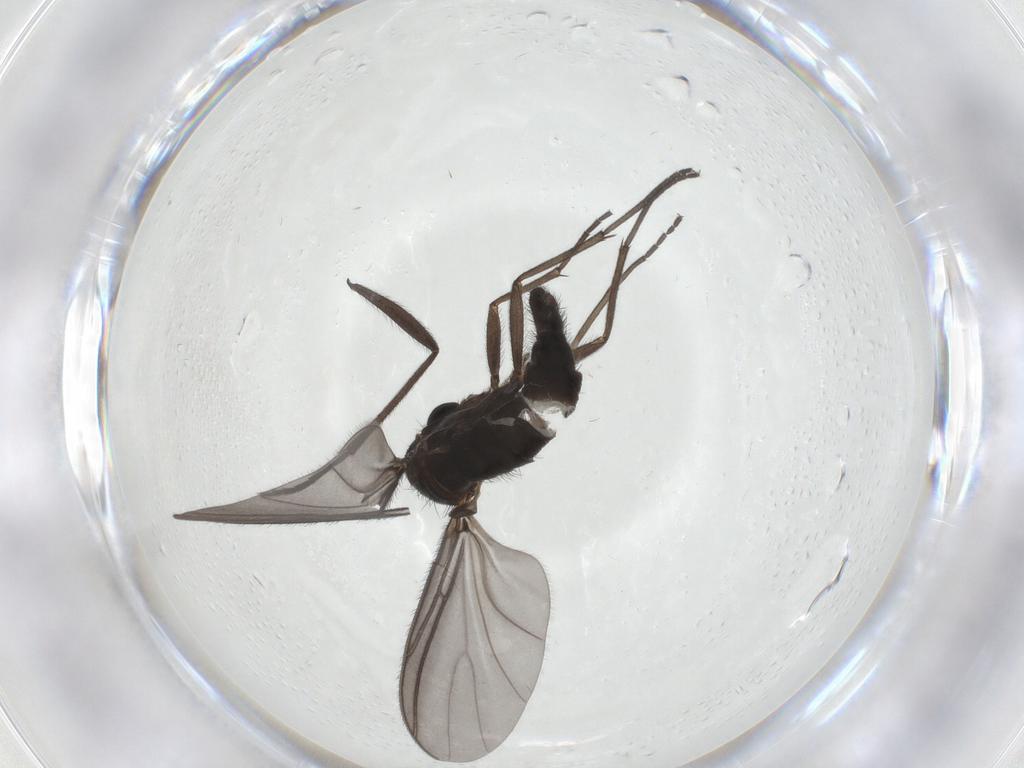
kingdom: Animalia
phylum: Arthropoda
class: Insecta
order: Diptera
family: Sciaridae
